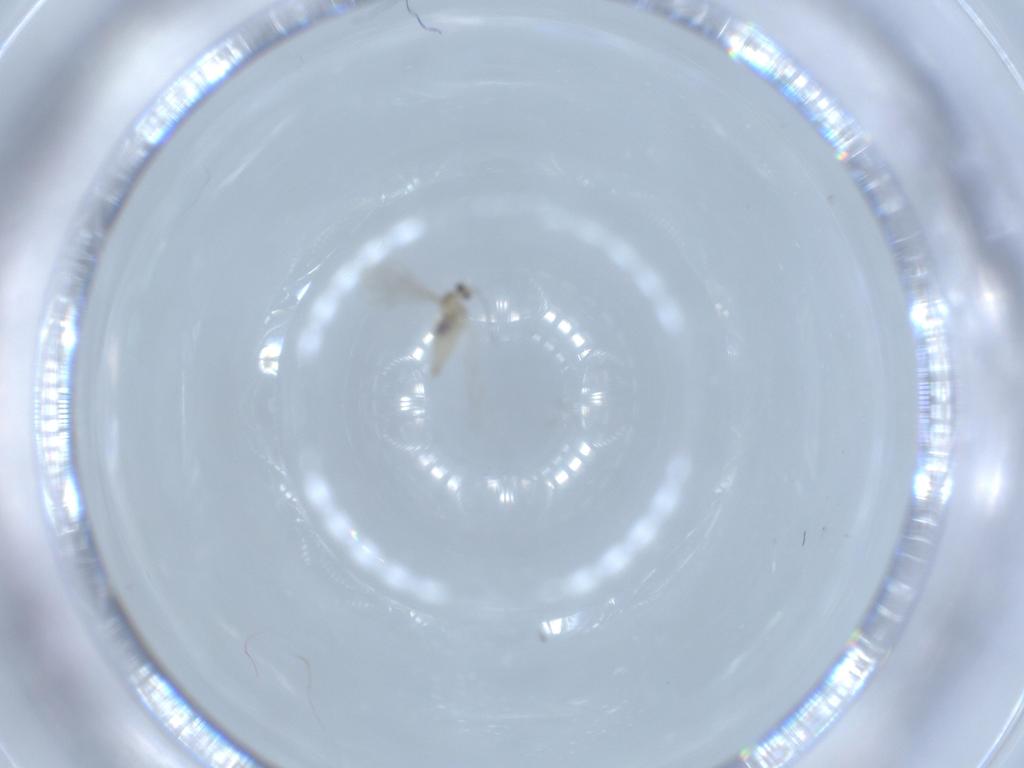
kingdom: Animalia
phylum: Arthropoda
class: Insecta
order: Diptera
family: Cecidomyiidae
